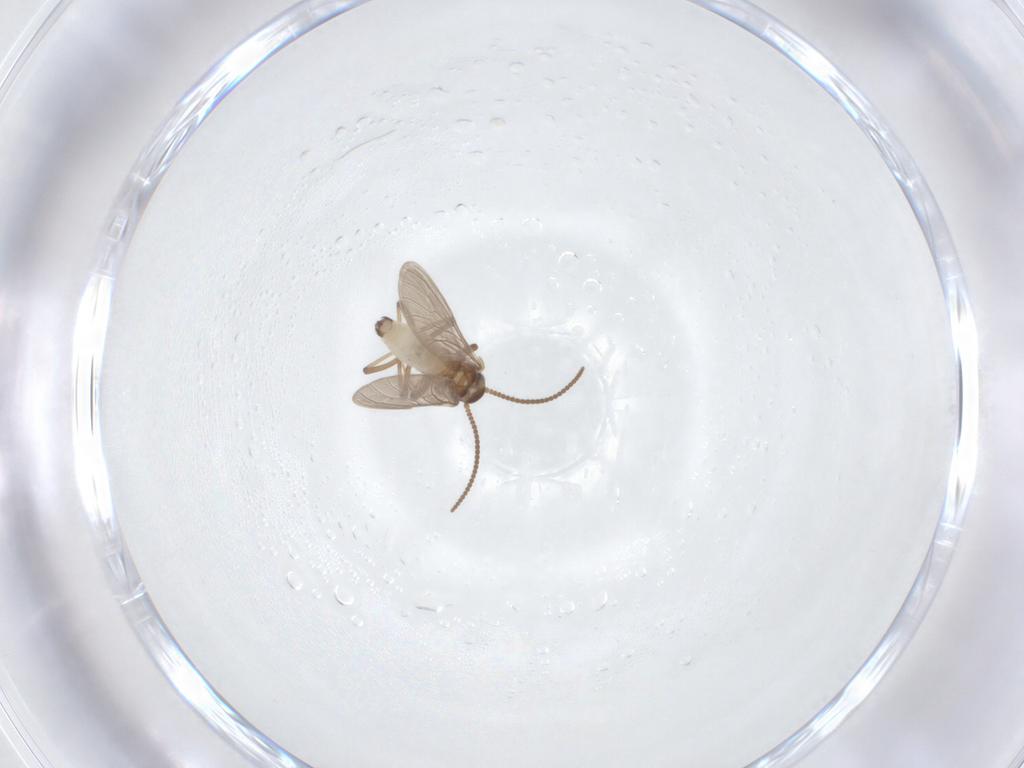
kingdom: Animalia
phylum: Arthropoda
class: Insecta
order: Neuroptera
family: Coniopterygidae
